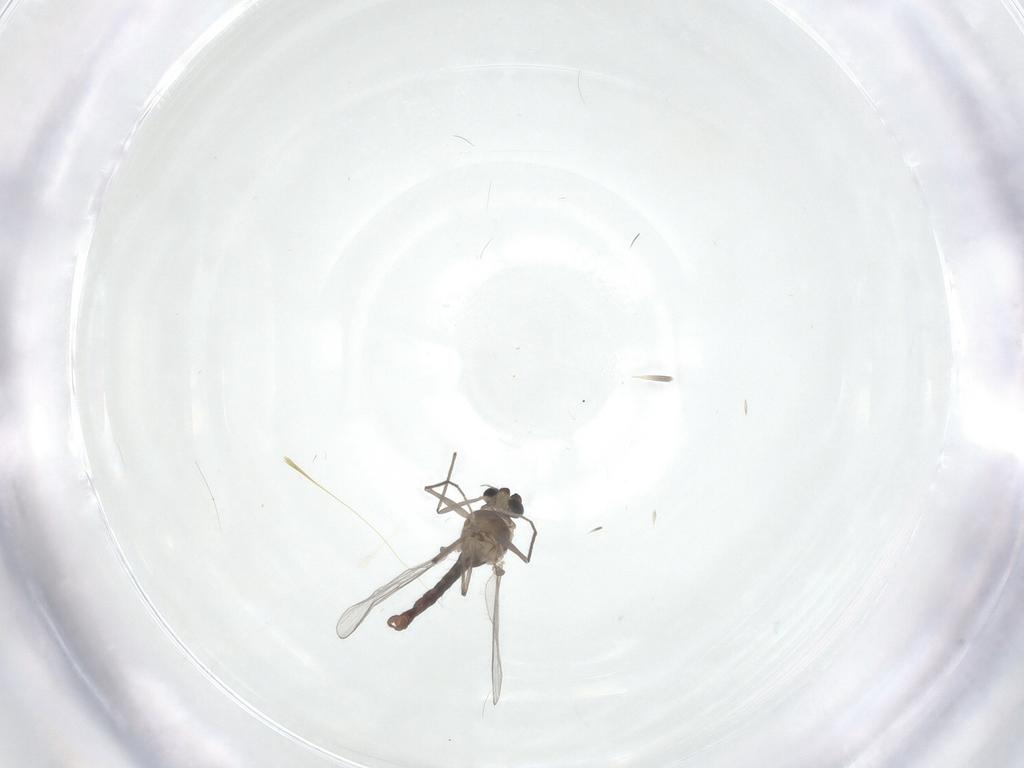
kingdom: Animalia
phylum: Arthropoda
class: Insecta
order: Diptera
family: Chironomidae
